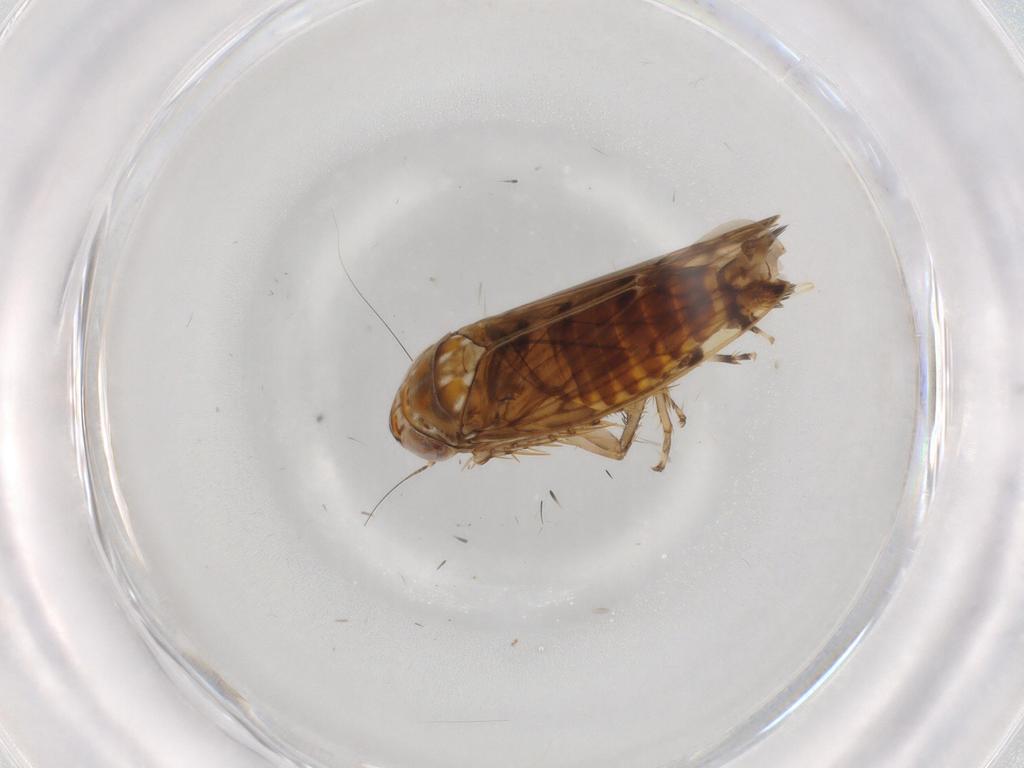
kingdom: Animalia
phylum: Arthropoda
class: Insecta
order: Hemiptera
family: Cicadellidae
